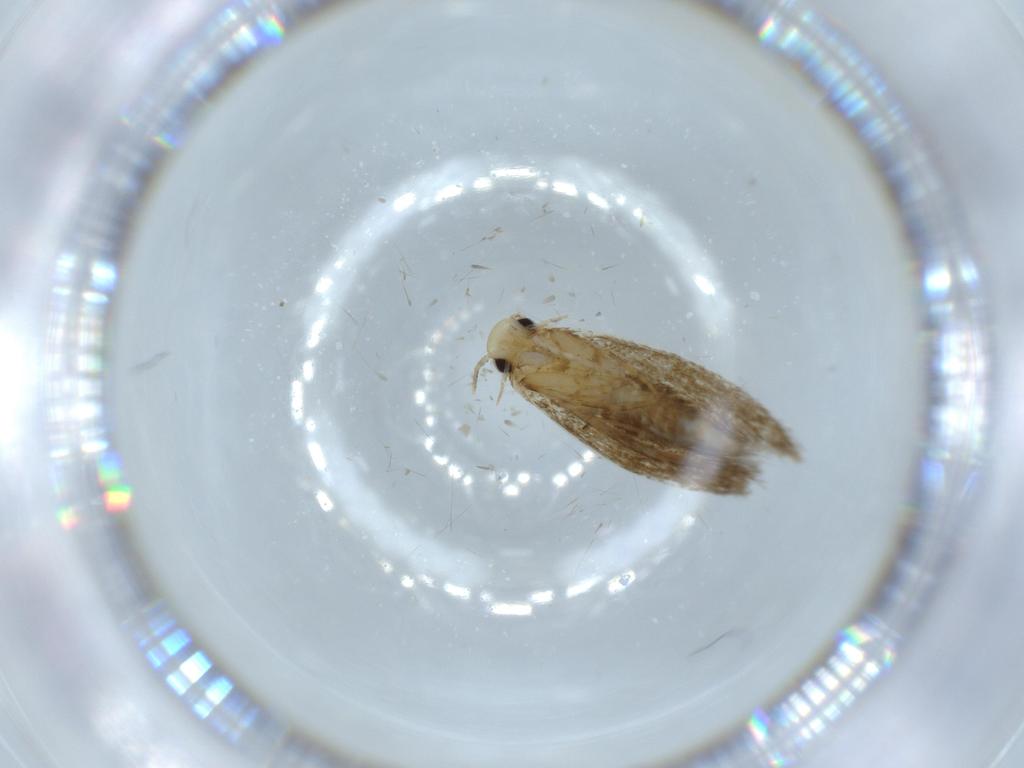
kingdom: Animalia
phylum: Arthropoda
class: Insecta
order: Lepidoptera
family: Tineidae
